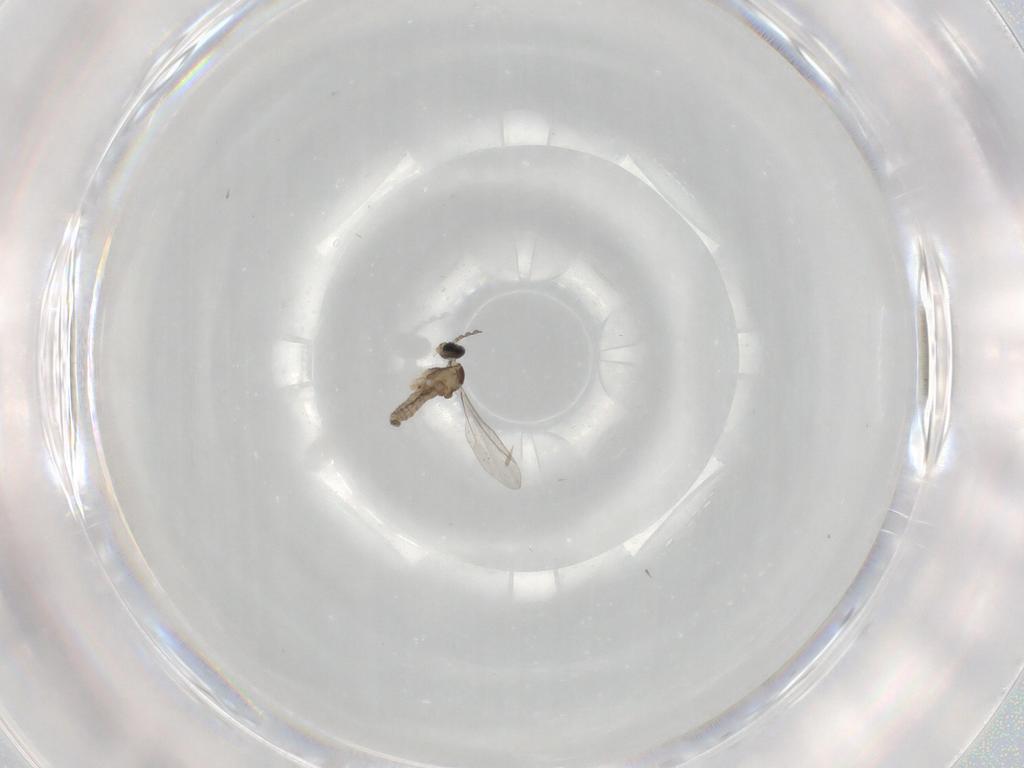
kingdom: Animalia
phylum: Arthropoda
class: Insecta
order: Diptera
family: Cecidomyiidae
